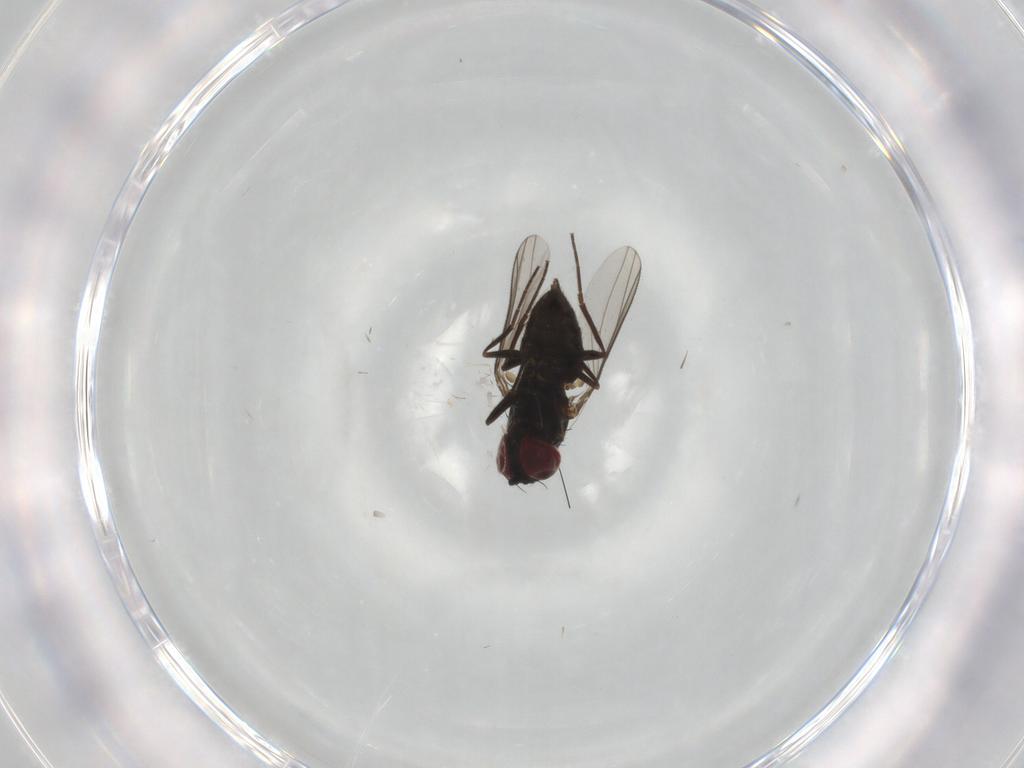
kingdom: Animalia
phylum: Arthropoda
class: Insecta
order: Diptera
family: Dolichopodidae
